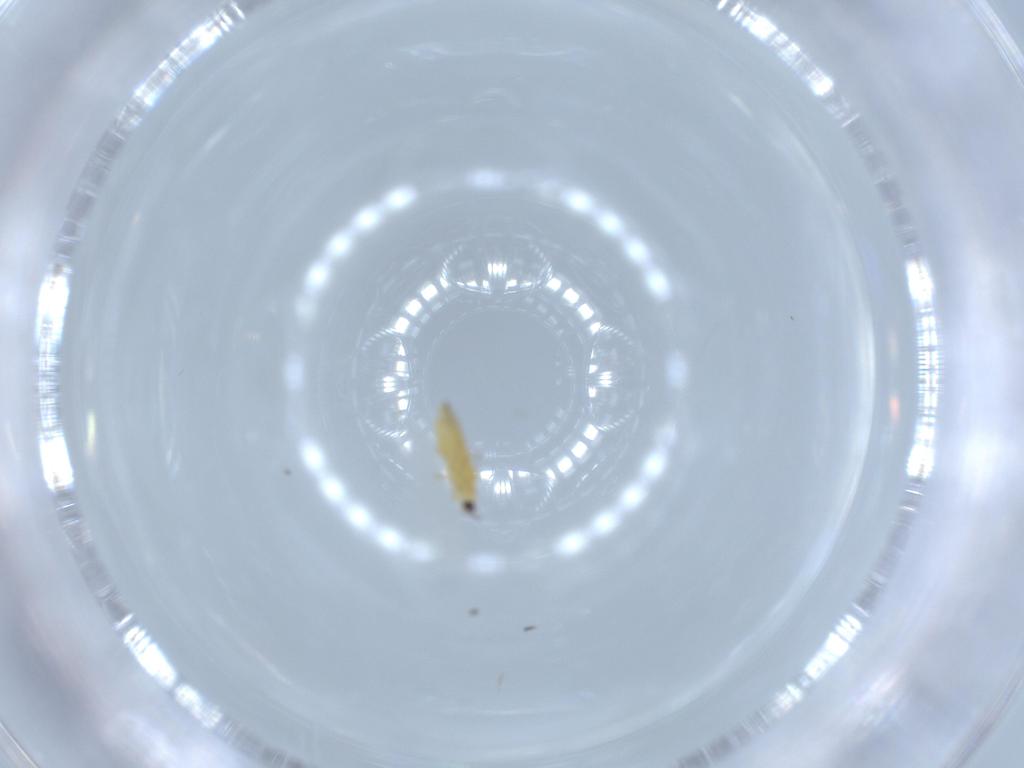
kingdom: Animalia
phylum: Arthropoda
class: Insecta
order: Thysanoptera
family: Thripidae
